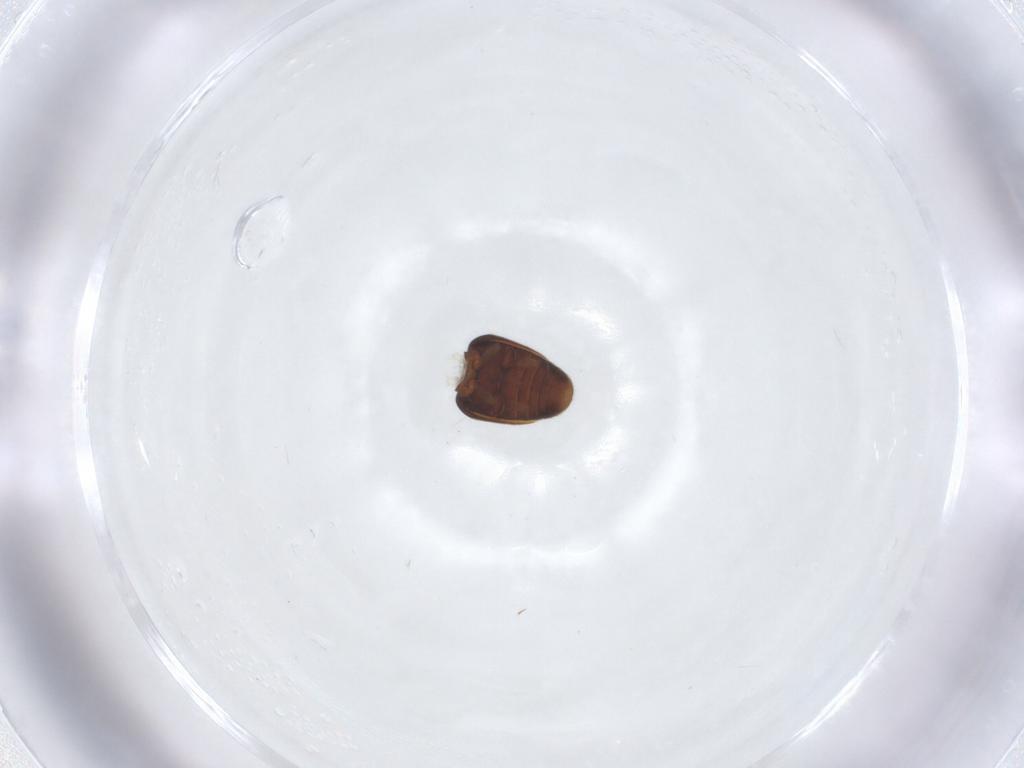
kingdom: Animalia
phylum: Arthropoda
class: Insecta
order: Coleoptera
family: Corylophidae
